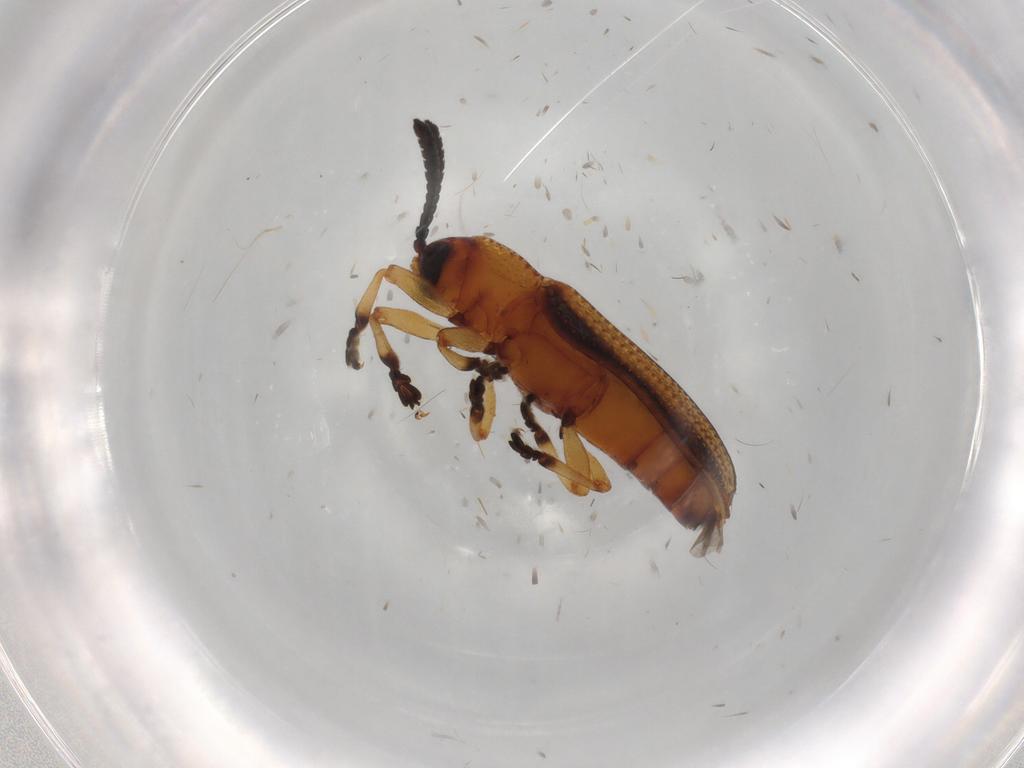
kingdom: Animalia
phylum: Arthropoda
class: Insecta
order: Coleoptera
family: Chrysomelidae
